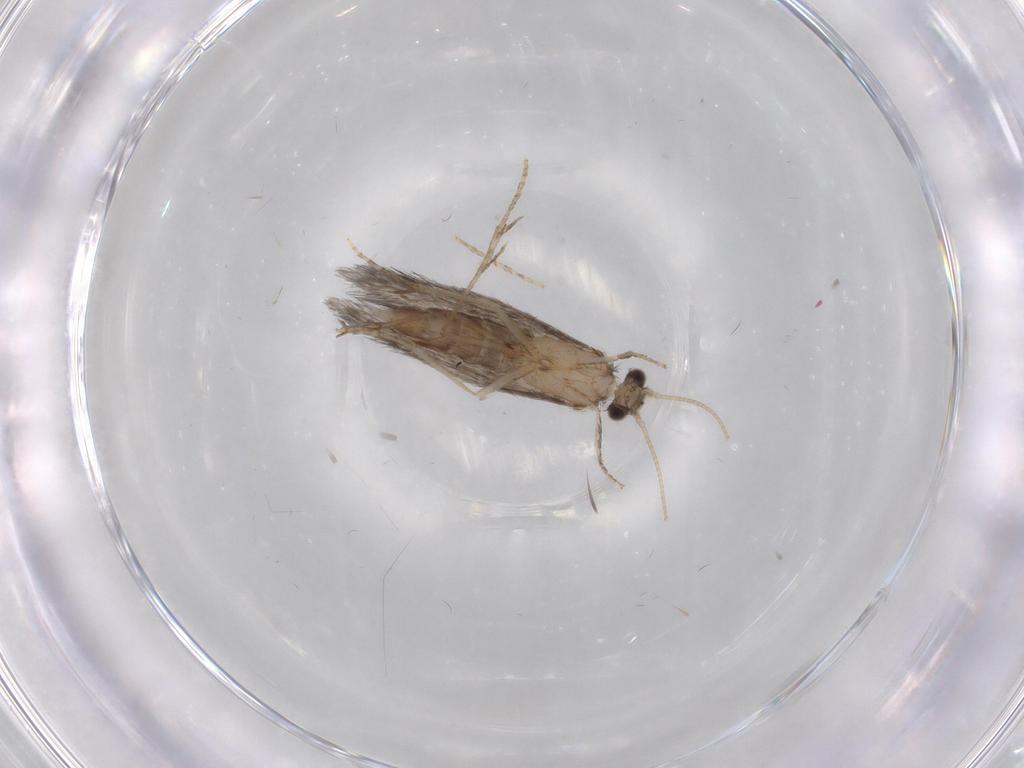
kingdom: Animalia
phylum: Arthropoda
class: Insecta
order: Trichoptera
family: Hydroptilidae
